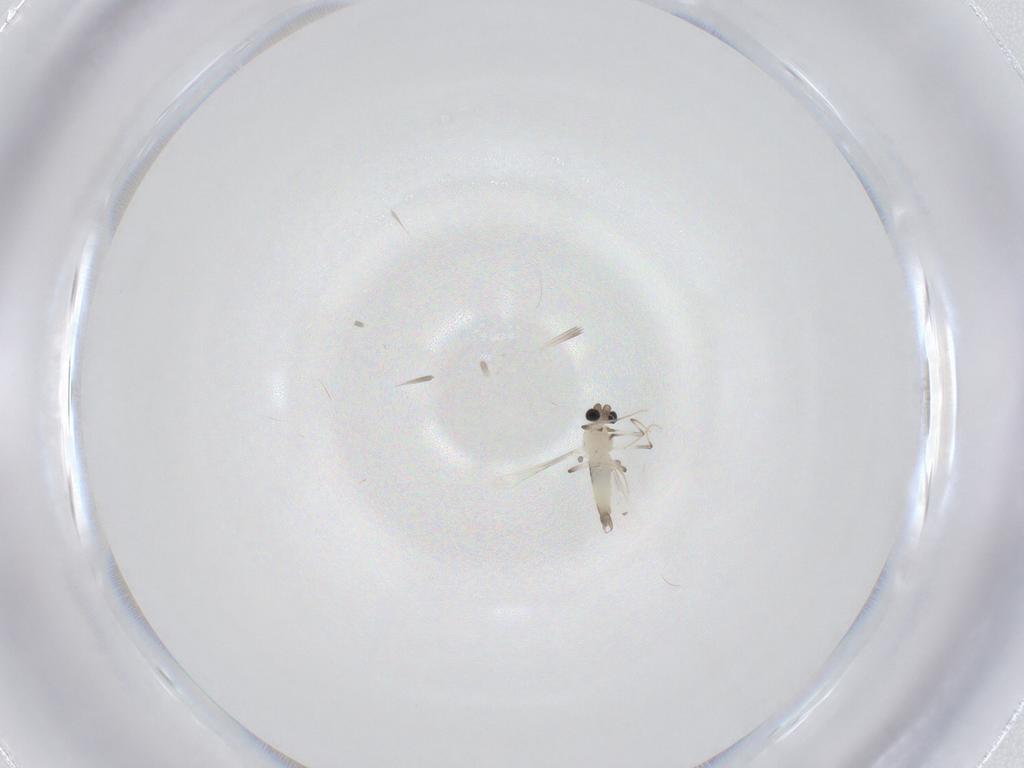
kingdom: Animalia
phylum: Arthropoda
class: Insecta
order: Diptera
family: Chironomidae
